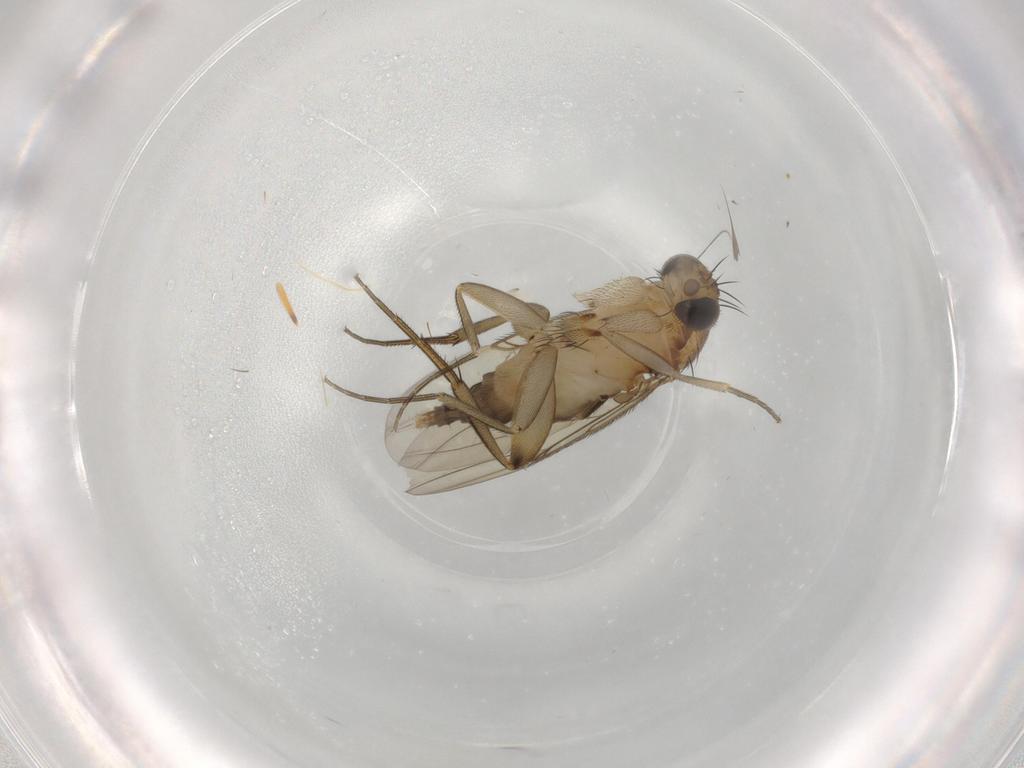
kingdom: Animalia
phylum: Arthropoda
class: Insecta
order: Diptera
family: Phoridae
